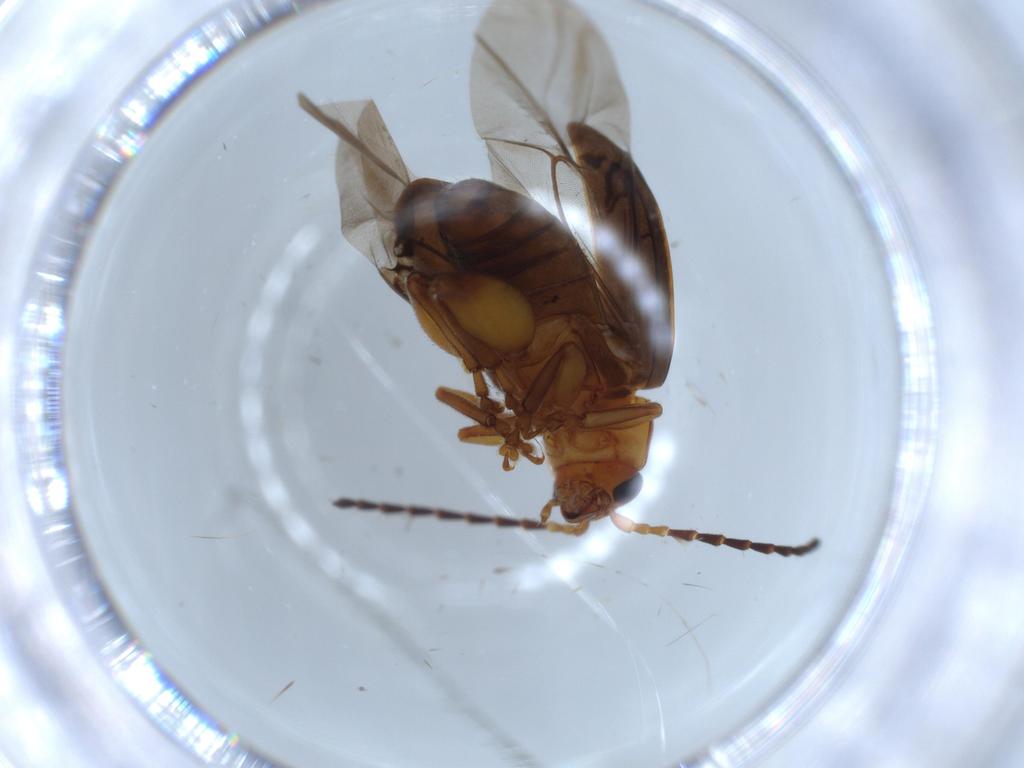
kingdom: Animalia
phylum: Arthropoda
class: Insecta
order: Coleoptera
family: Chrysomelidae
